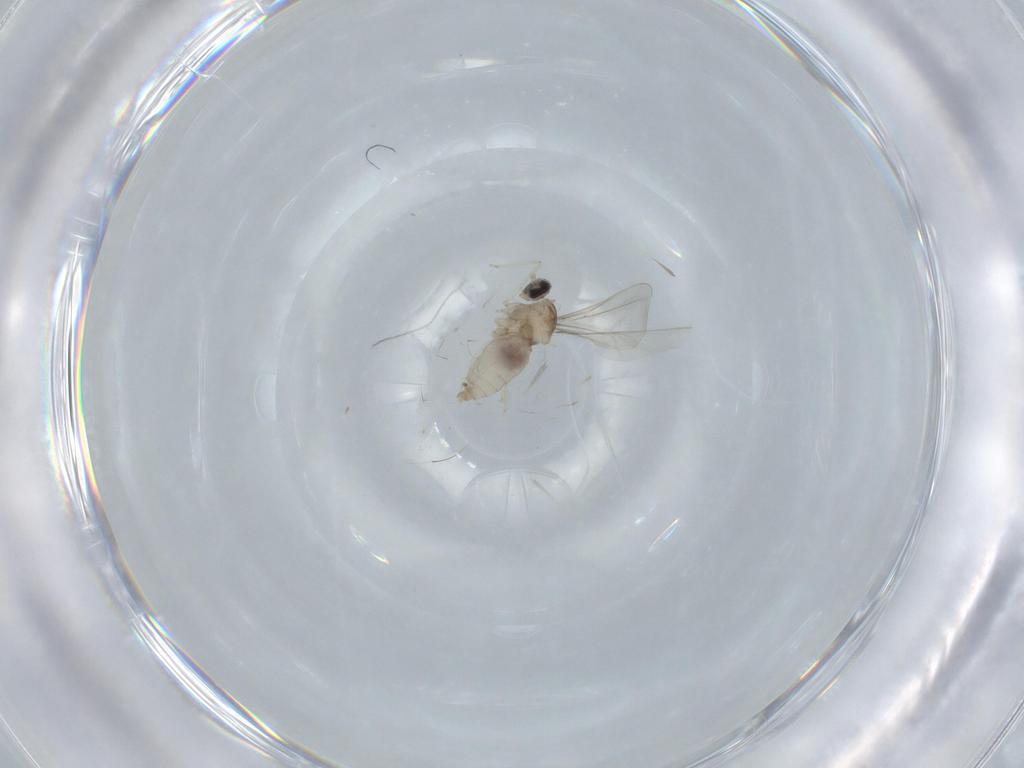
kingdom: Animalia
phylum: Arthropoda
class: Insecta
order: Diptera
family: Cecidomyiidae
